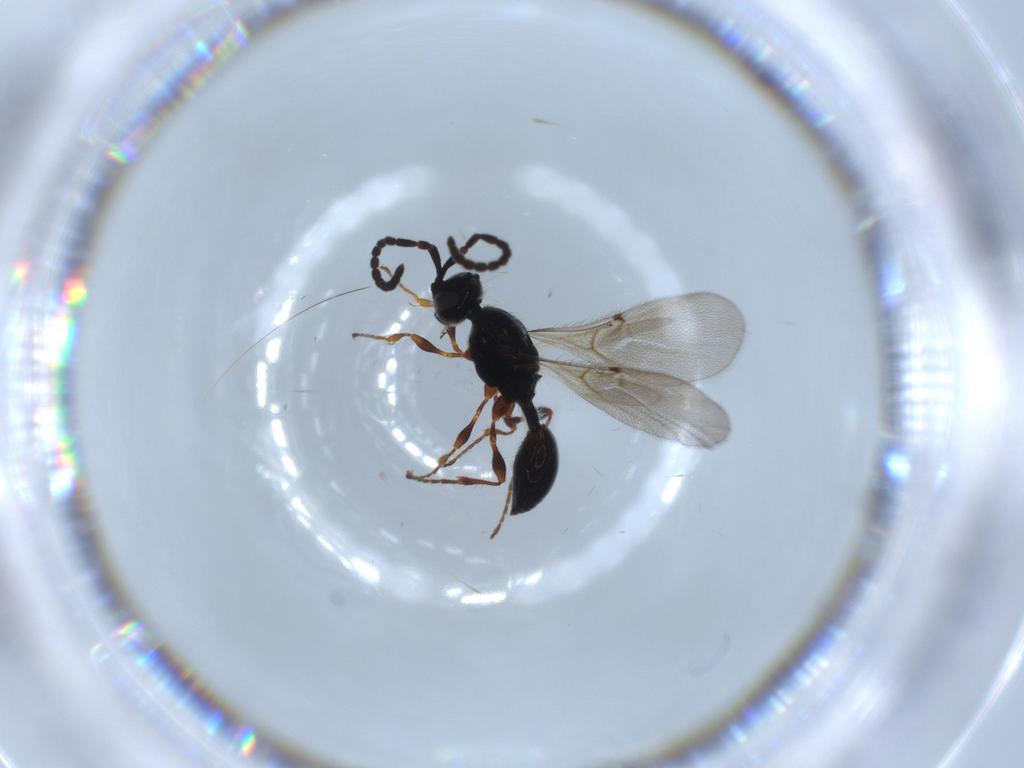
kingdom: Animalia
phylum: Arthropoda
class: Insecta
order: Hymenoptera
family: Diapriidae
